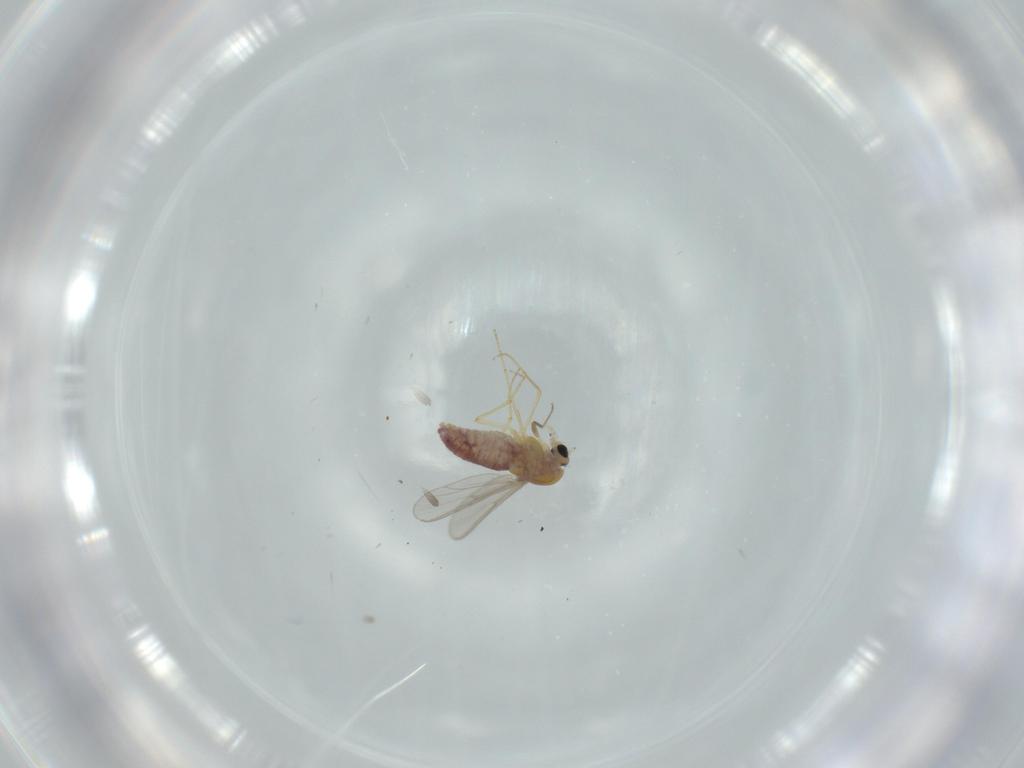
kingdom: Animalia
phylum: Arthropoda
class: Insecta
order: Diptera
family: Chironomidae
